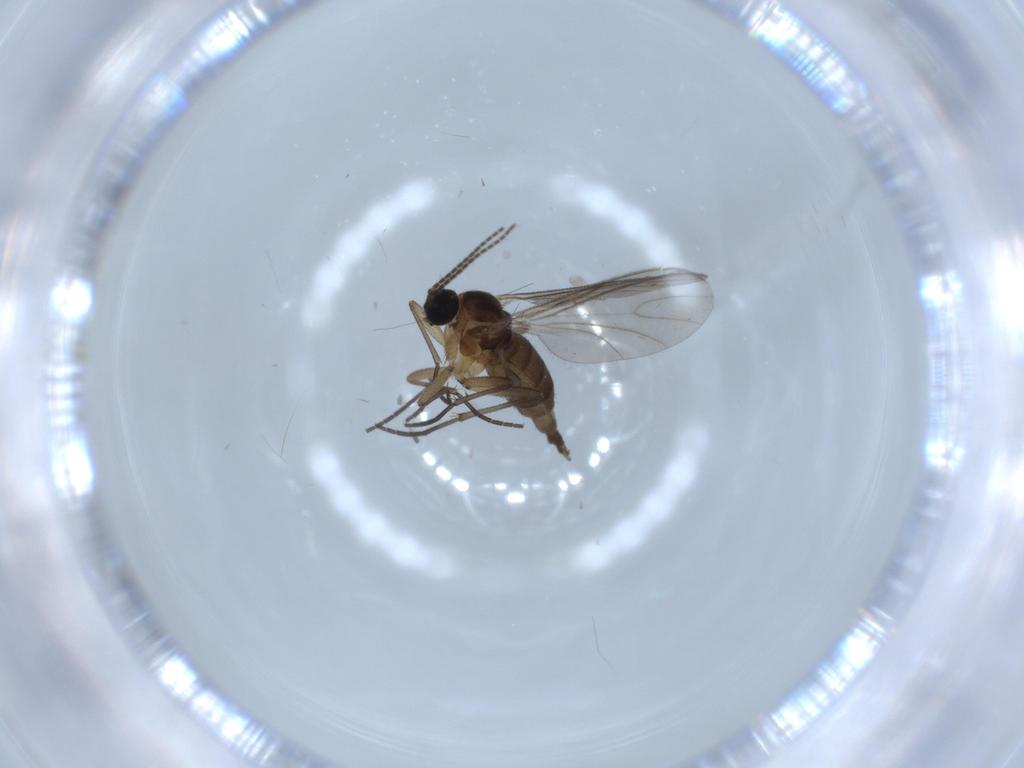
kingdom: Animalia
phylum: Arthropoda
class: Insecta
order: Diptera
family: Sciaridae
